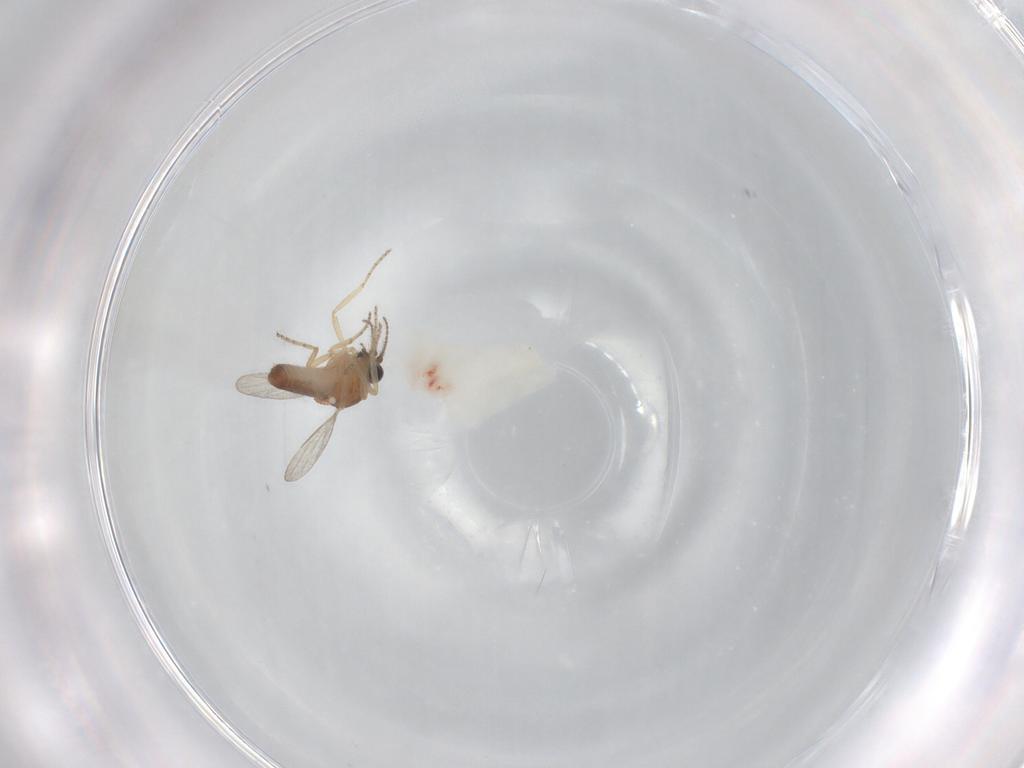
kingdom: Animalia
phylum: Arthropoda
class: Insecta
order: Diptera
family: Ceratopogonidae
